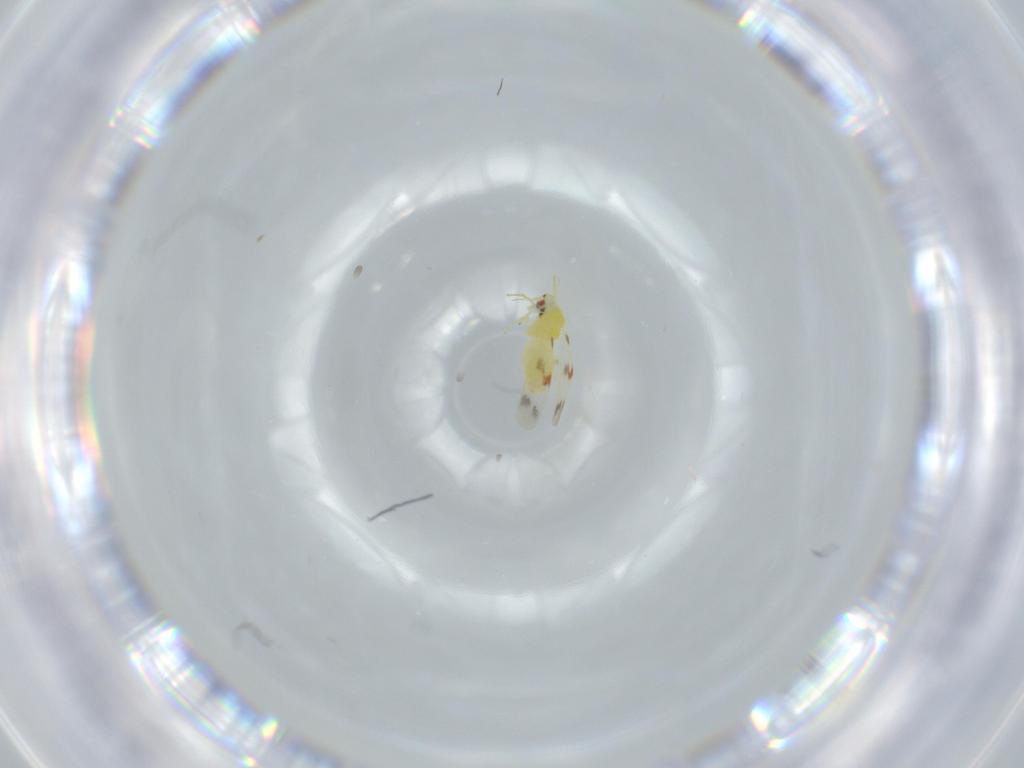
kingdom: Animalia
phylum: Arthropoda
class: Insecta
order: Hemiptera
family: Aleyrodidae
